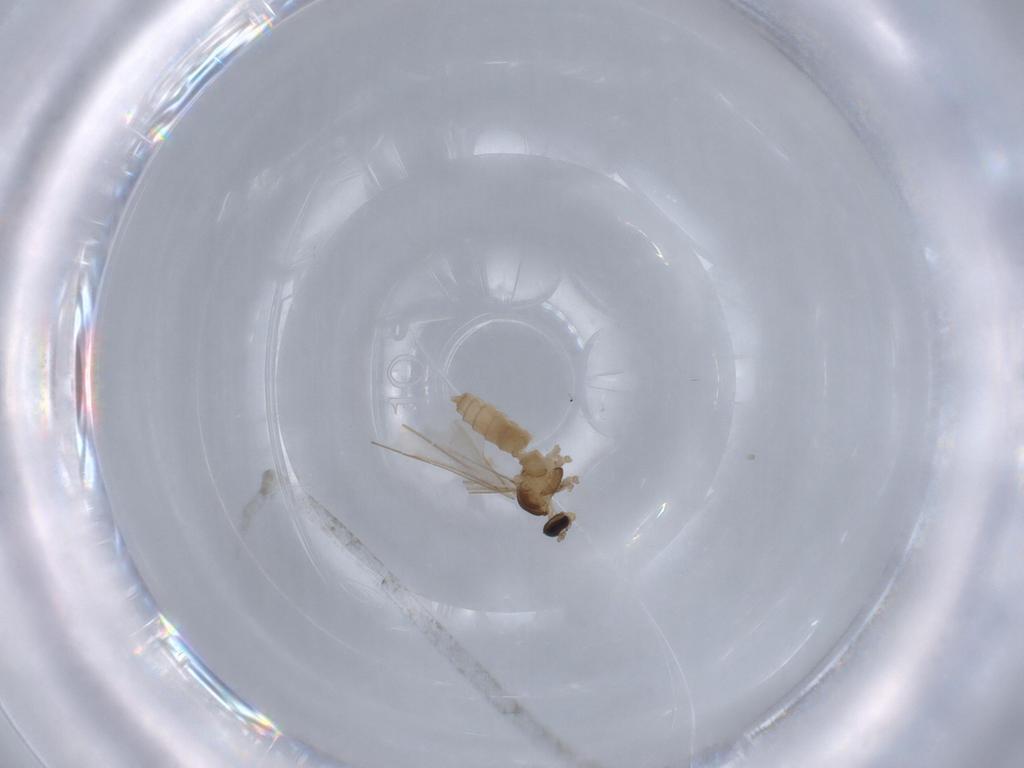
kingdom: Animalia
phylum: Arthropoda
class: Insecta
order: Diptera
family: Cecidomyiidae
